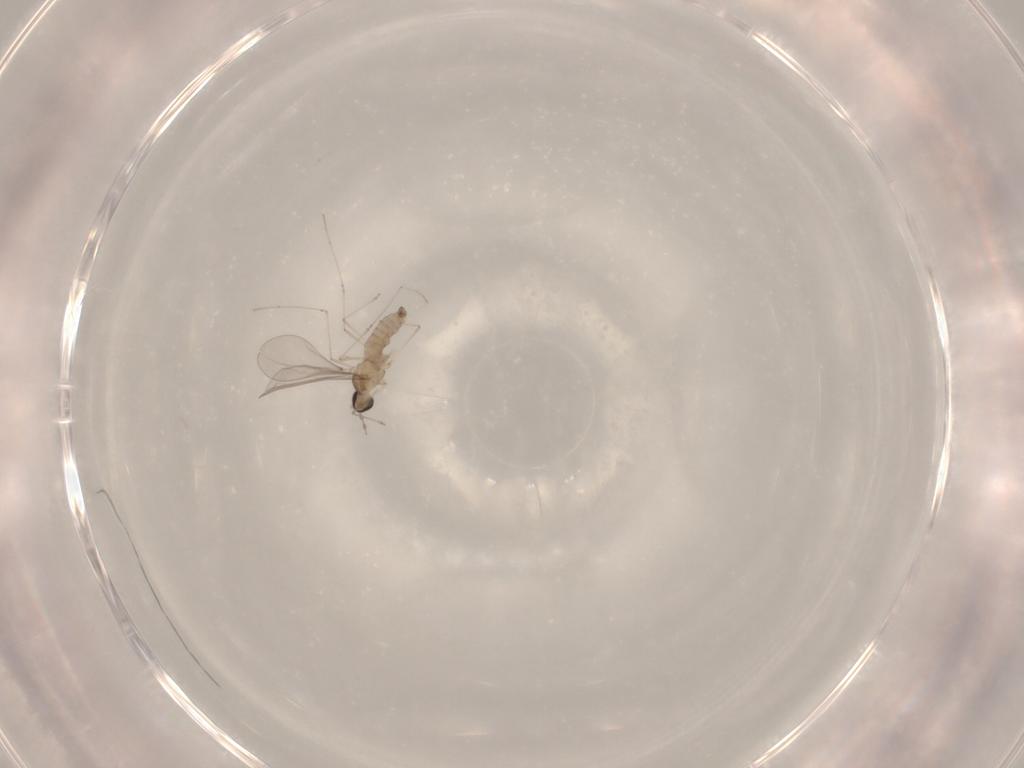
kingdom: Animalia
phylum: Arthropoda
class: Insecta
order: Diptera
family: Cecidomyiidae
